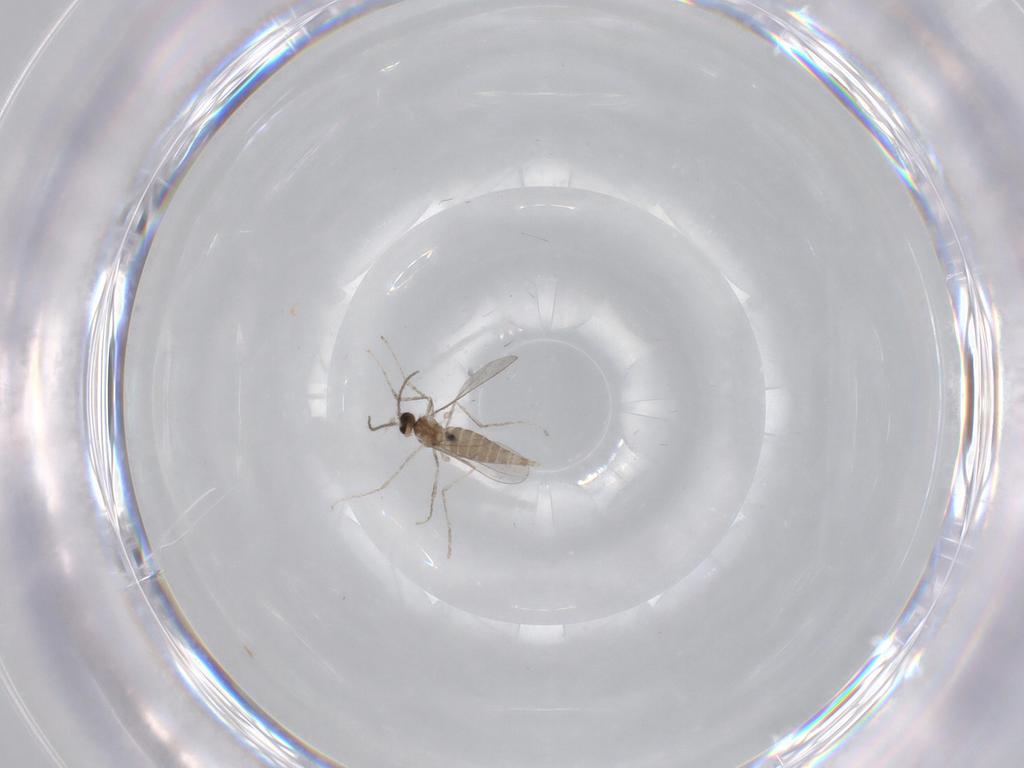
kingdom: Animalia
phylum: Arthropoda
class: Insecta
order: Diptera
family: Cecidomyiidae
